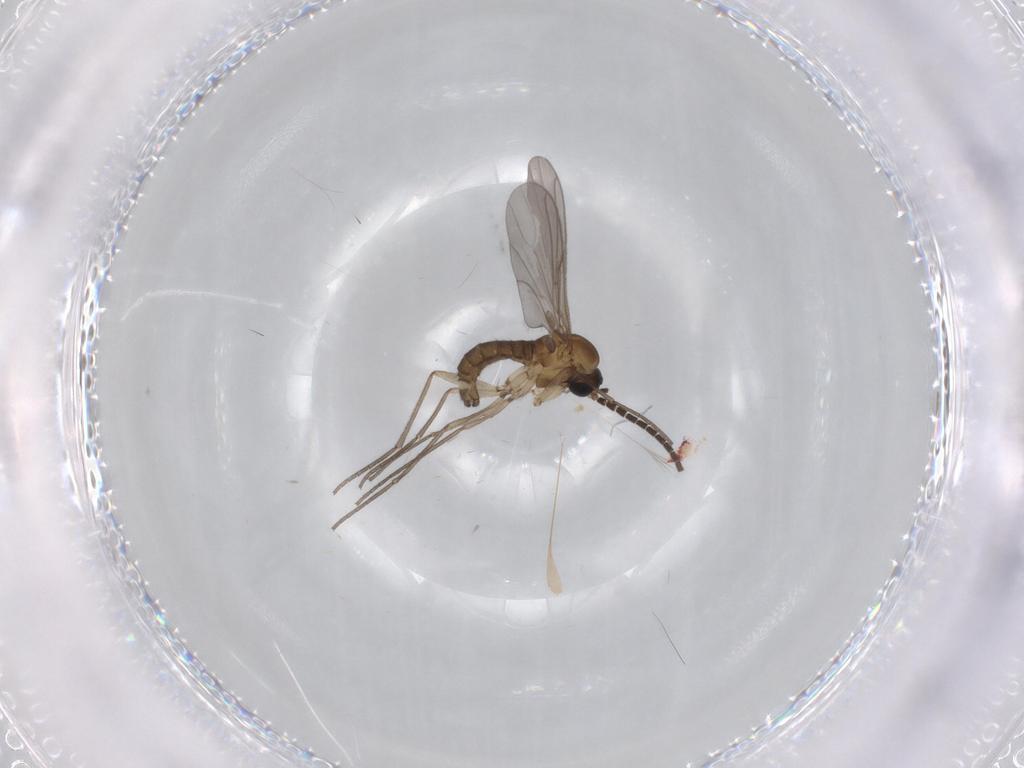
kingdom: Animalia
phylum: Arthropoda
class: Insecta
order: Diptera
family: Sciaridae
